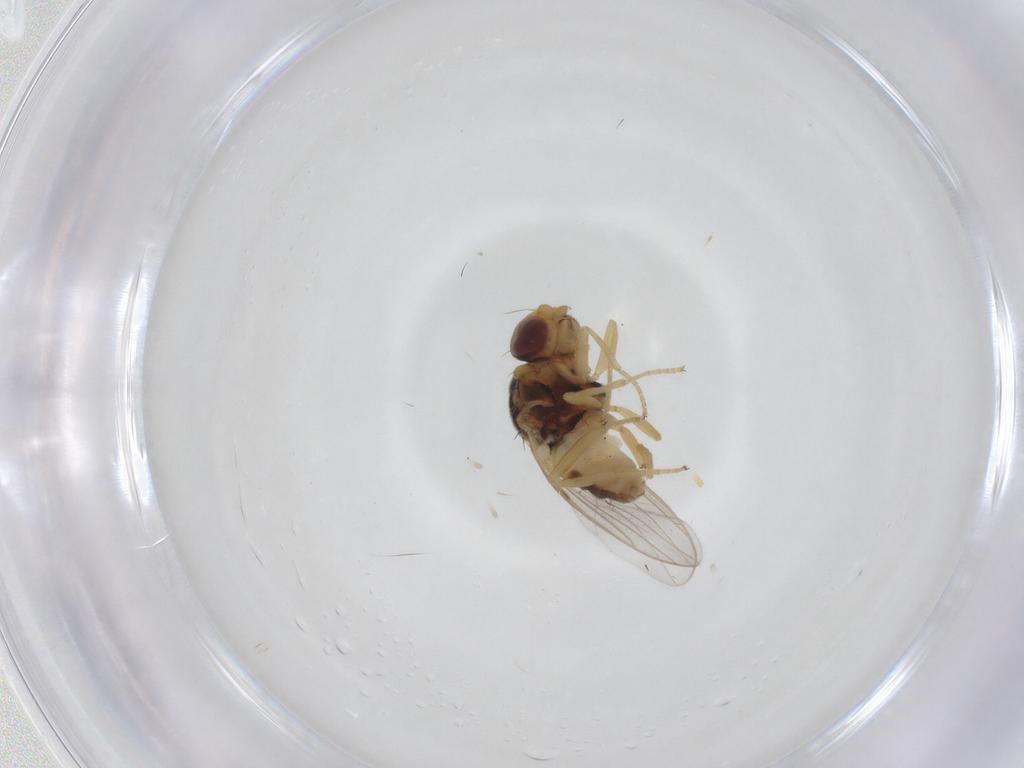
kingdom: Animalia
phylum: Arthropoda
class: Insecta
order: Diptera
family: Chloropidae
